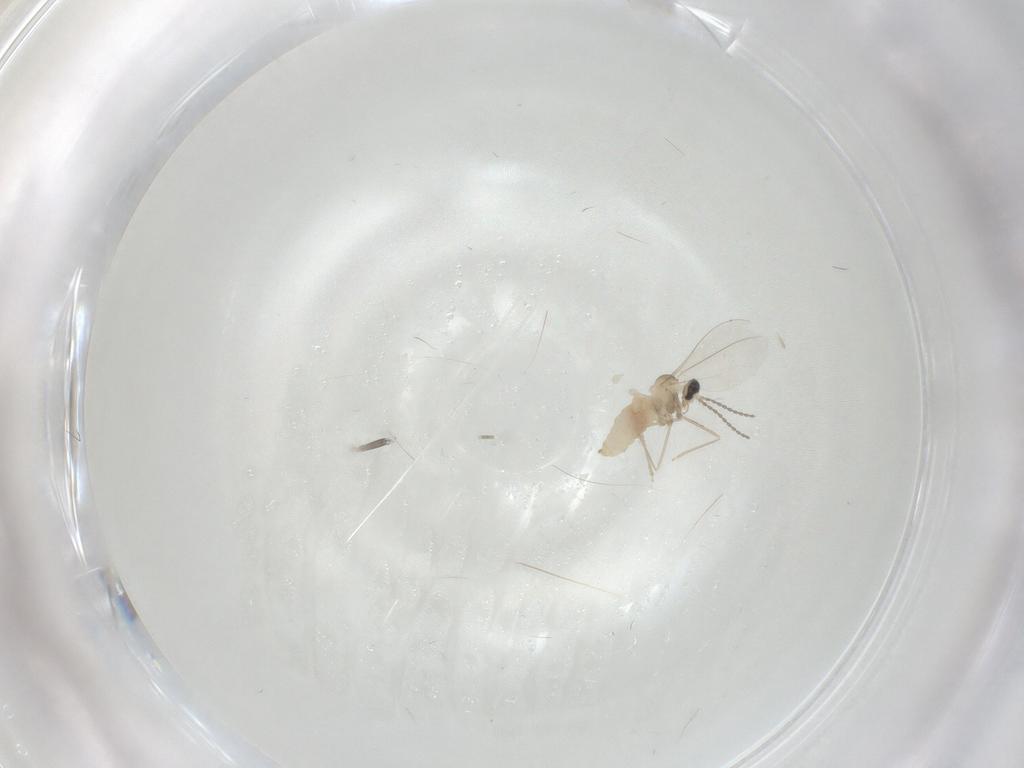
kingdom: Animalia
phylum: Arthropoda
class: Insecta
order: Diptera
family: Cecidomyiidae
